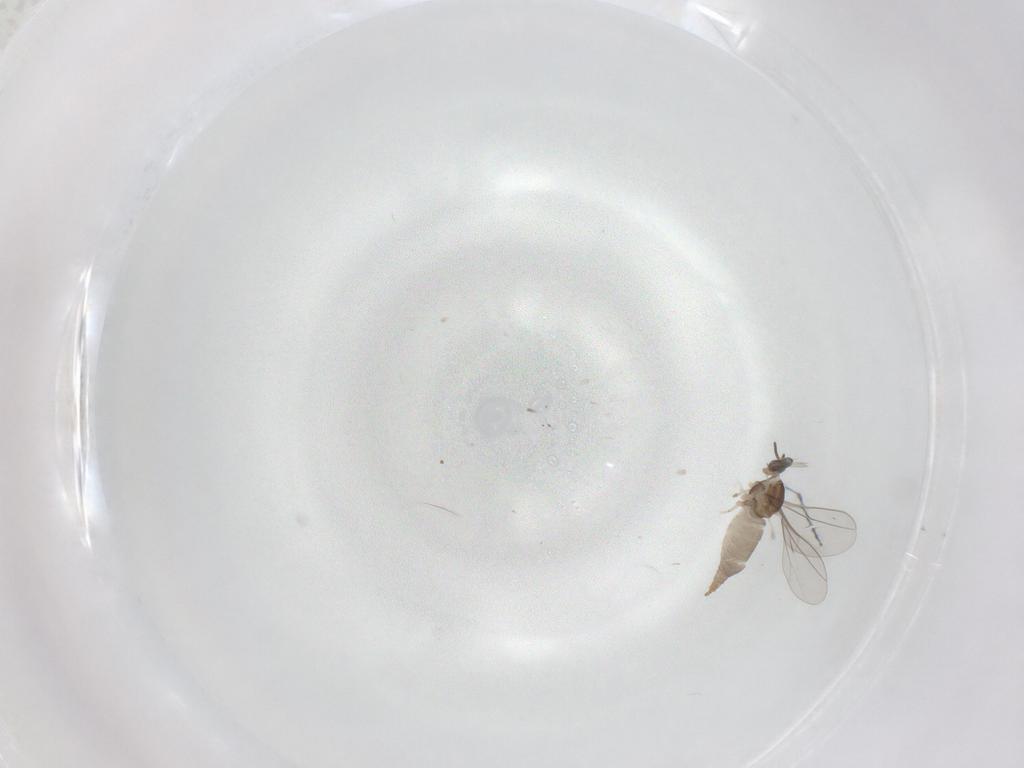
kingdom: Animalia
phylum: Arthropoda
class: Insecta
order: Diptera
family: Cecidomyiidae
